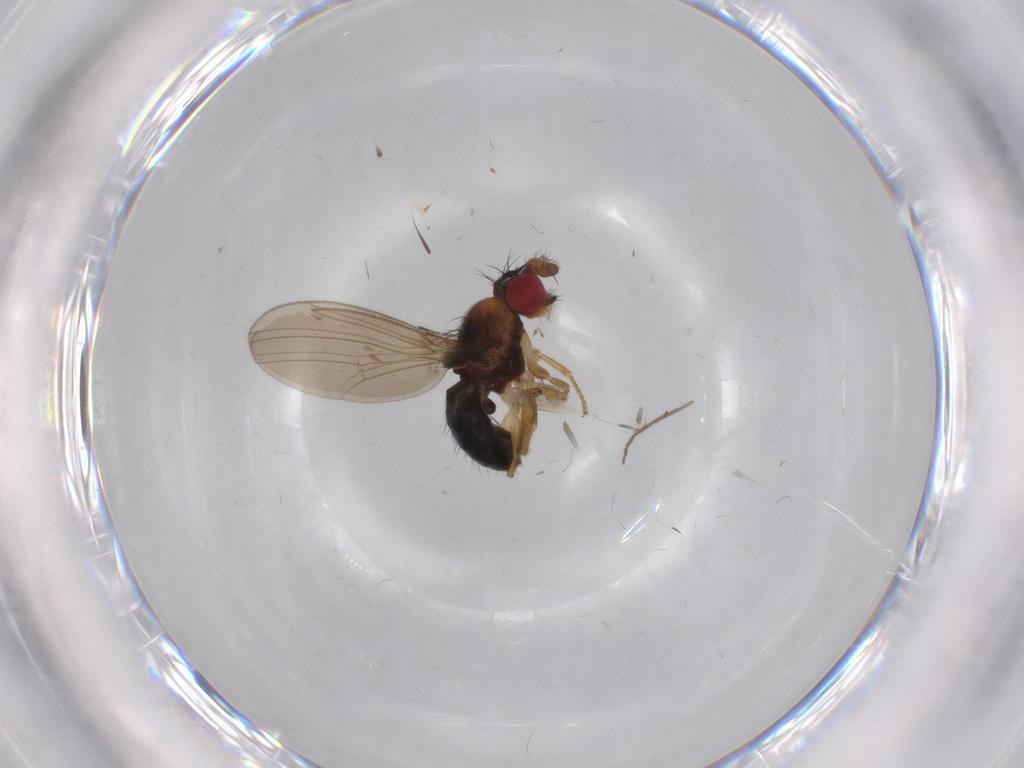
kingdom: Animalia
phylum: Arthropoda
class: Insecta
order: Diptera
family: Drosophilidae
